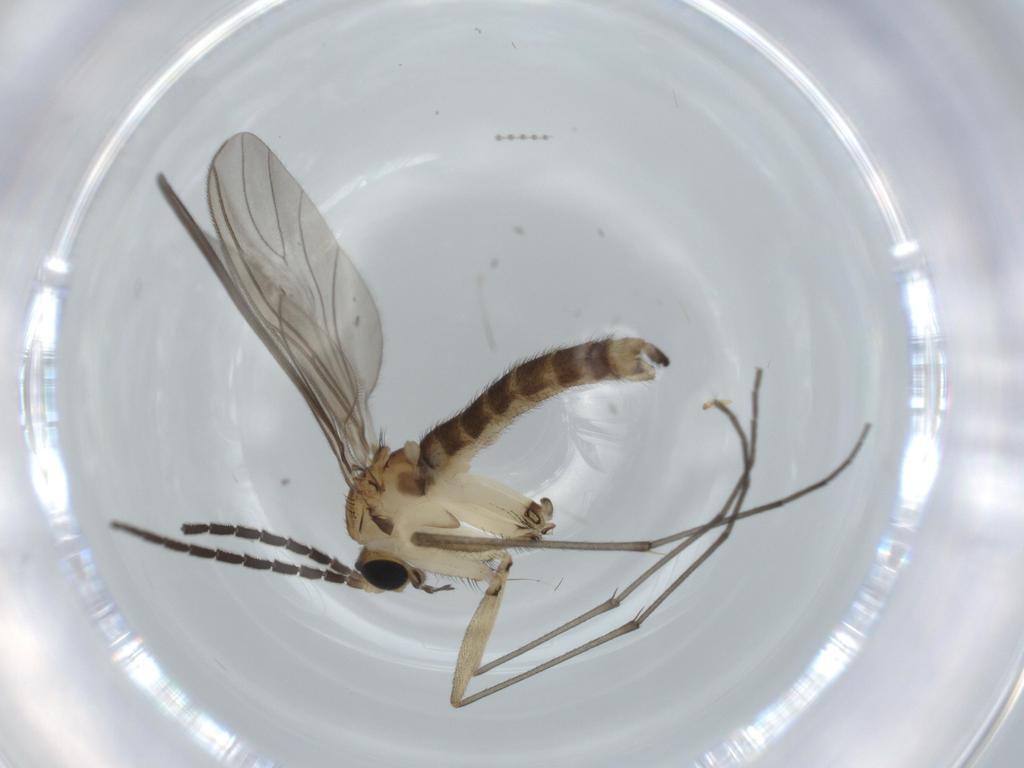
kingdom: Animalia
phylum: Arthropoda
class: Insecta
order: Diptera
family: Sciaridae
